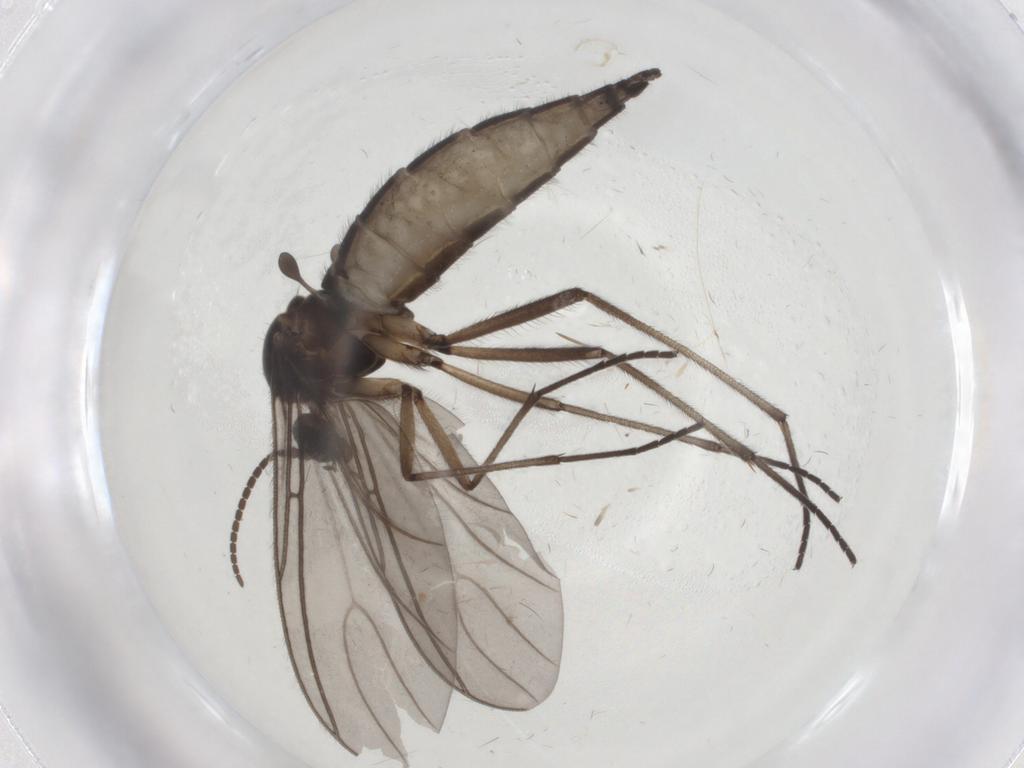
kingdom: Animalia
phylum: Arthropoda
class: Insecta
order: Diptera
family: Sciaridae
